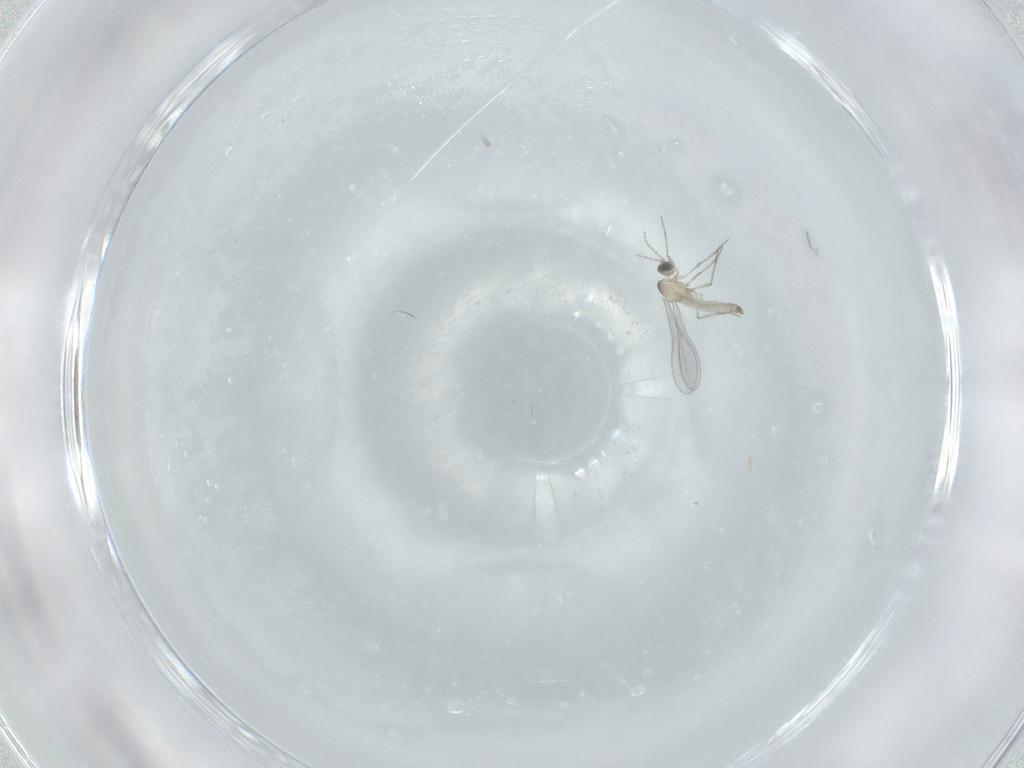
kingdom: Animalia
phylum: Arthropoda
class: Insecta
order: Diptera
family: Cecidomyiidae
